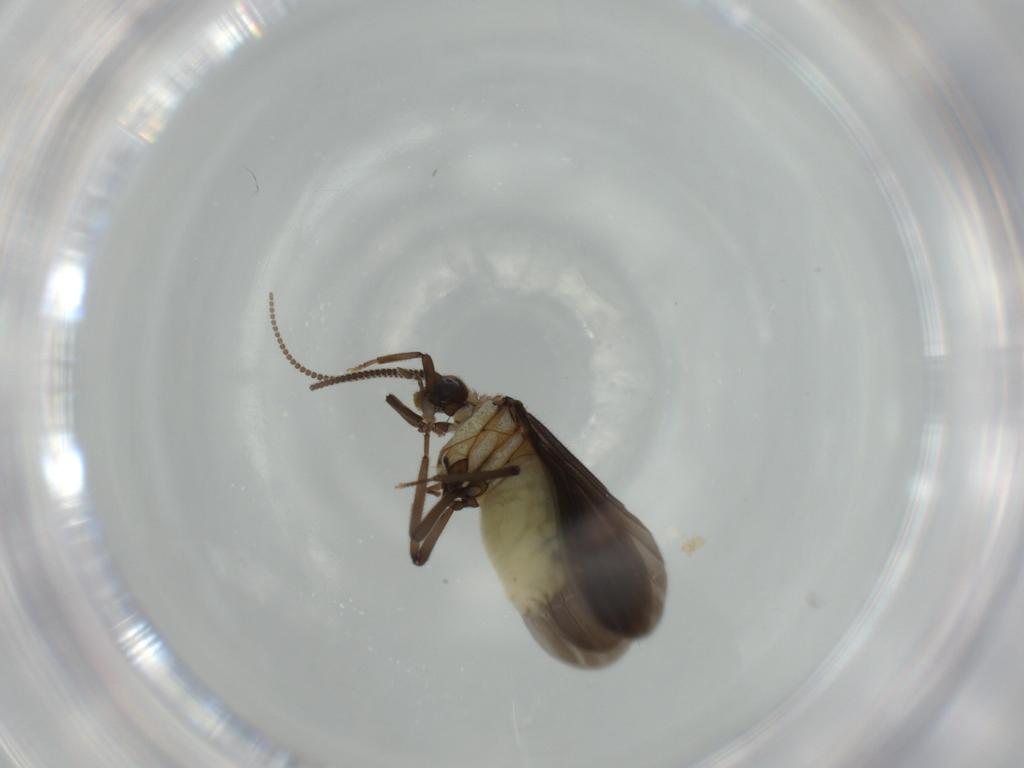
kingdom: Animalia
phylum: Arthropoda
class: Insecta
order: Neuroptera
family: Coniopterygidae
